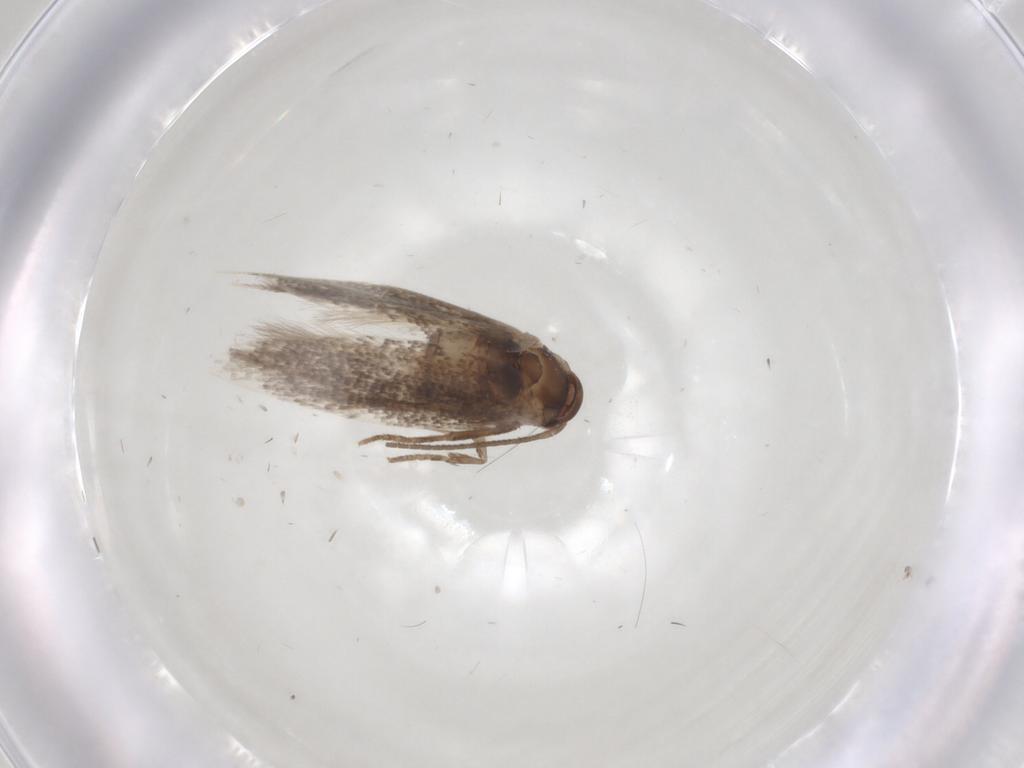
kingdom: Animalia
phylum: Arthropoda
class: Insecta
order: Lepidoptera
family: Elachistidae
